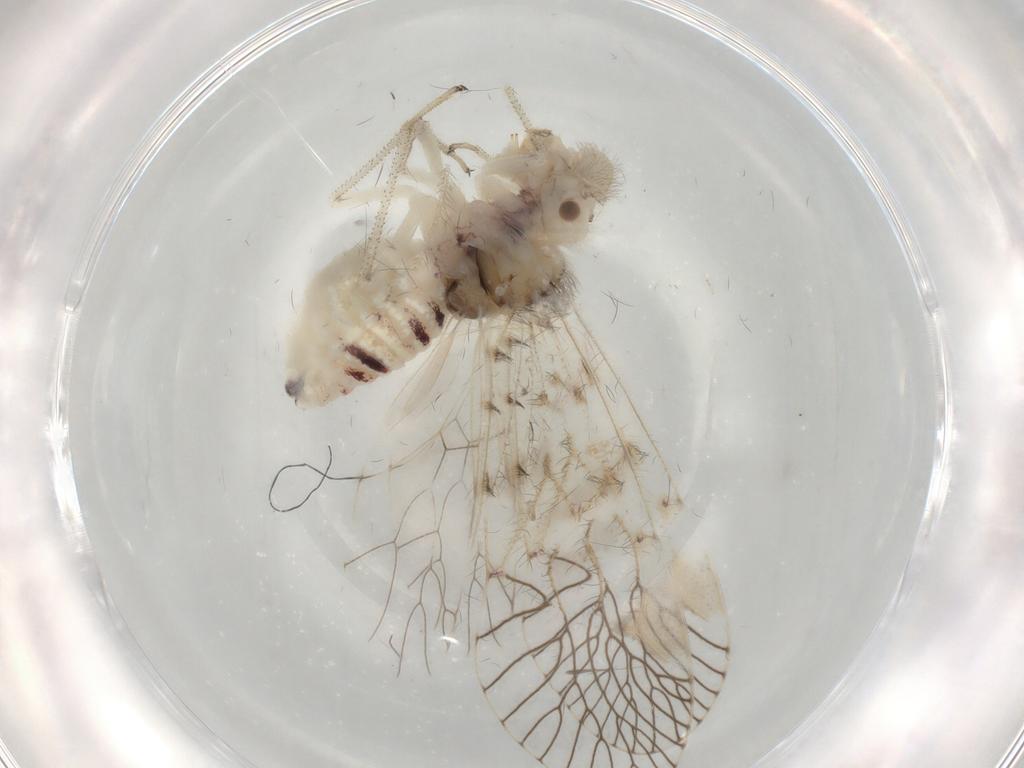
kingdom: Animalia
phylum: Arthropoda
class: Insecta
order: Psocodea
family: Amphipsocidae
